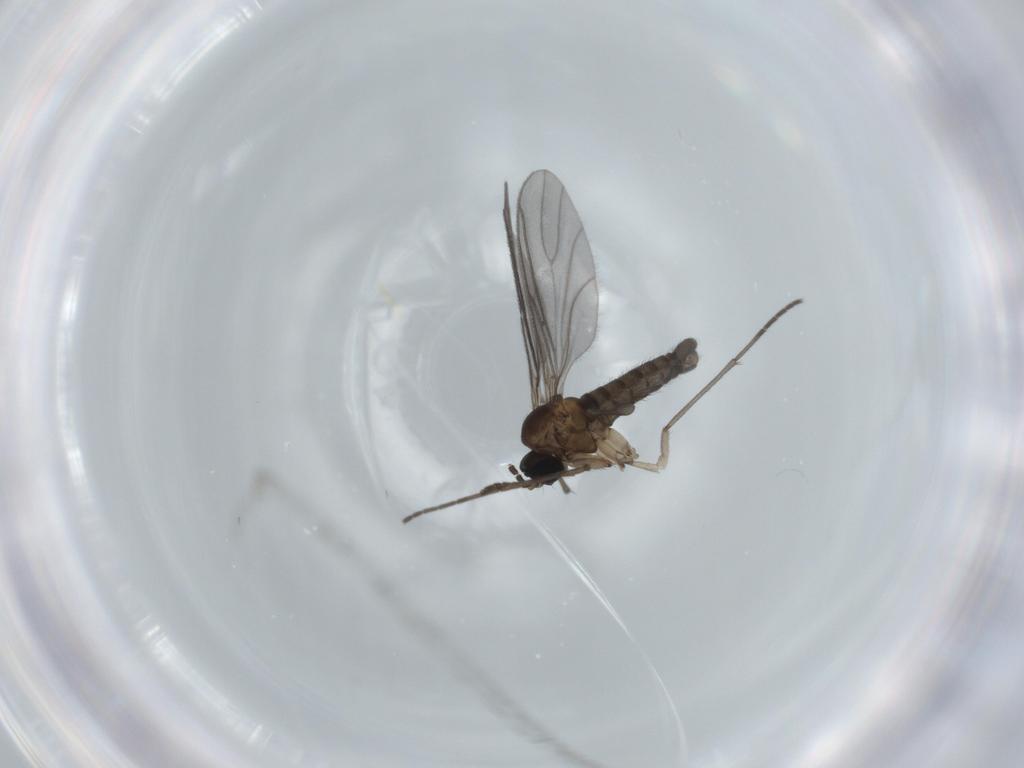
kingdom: Animalia
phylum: Arthropoda
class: Insecta
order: Diptera
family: Sciaridae
